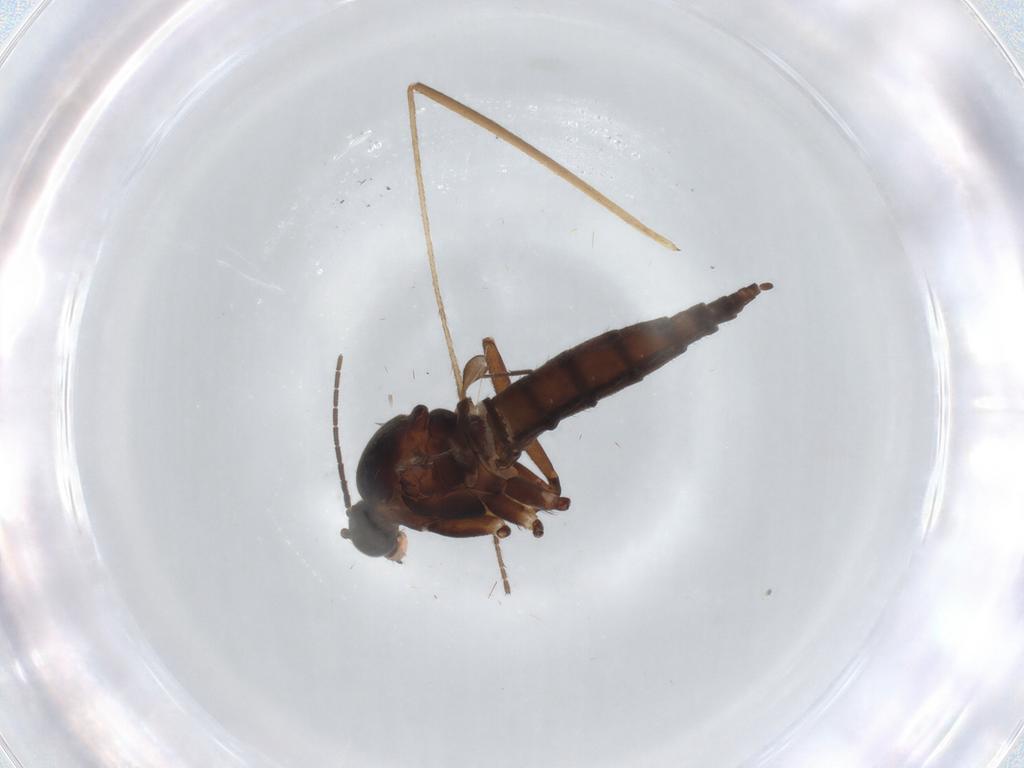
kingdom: Animalia
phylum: Arthropoda
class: Insecta
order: Diptera
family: Sciaridae
